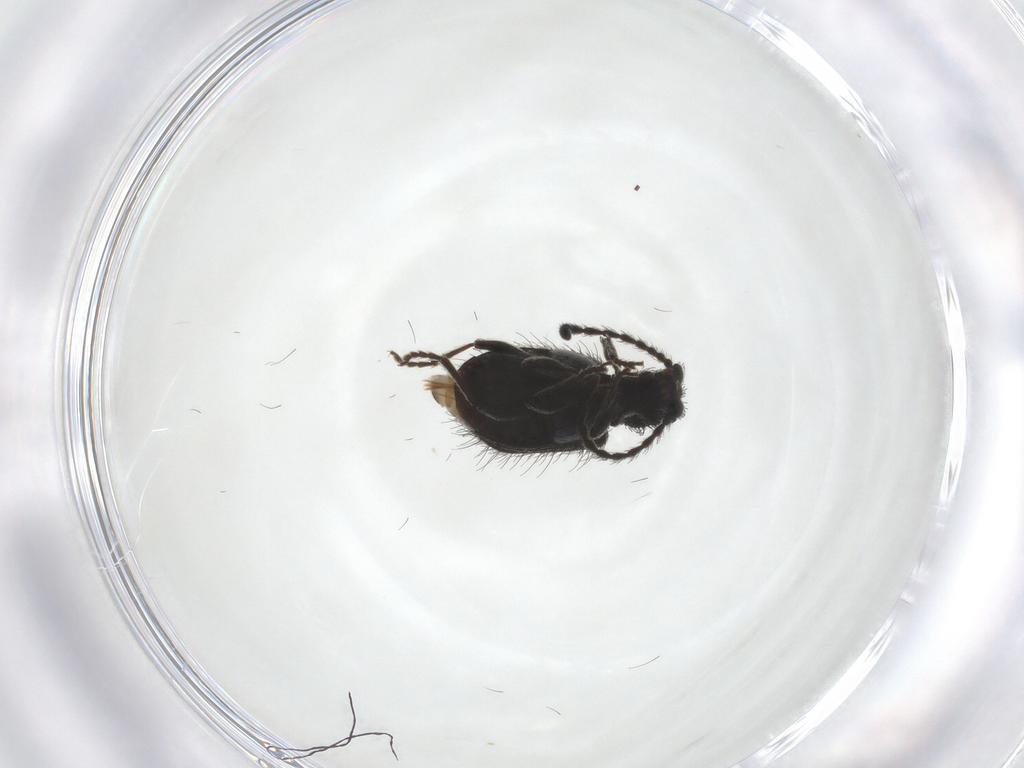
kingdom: Animalia
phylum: Arthropoda
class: Insecta
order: Coleoptera
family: Ptinidae
